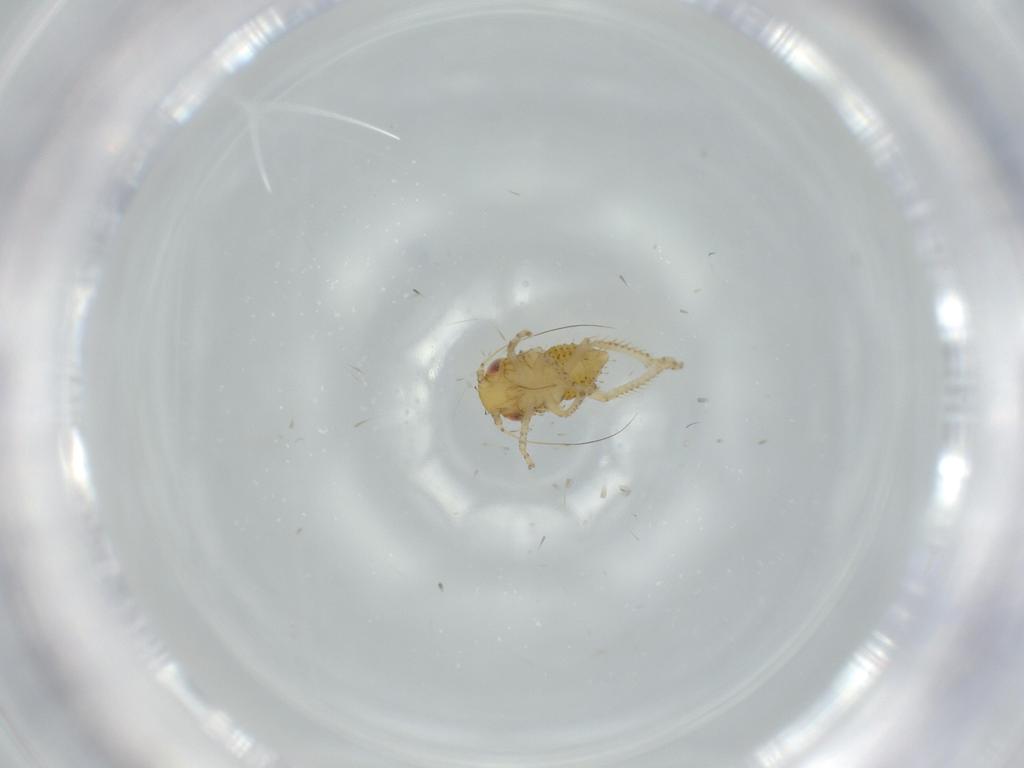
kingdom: Animalia
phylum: Arthropoda
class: Insecta
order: Hemiptera
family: Cicadellidae
